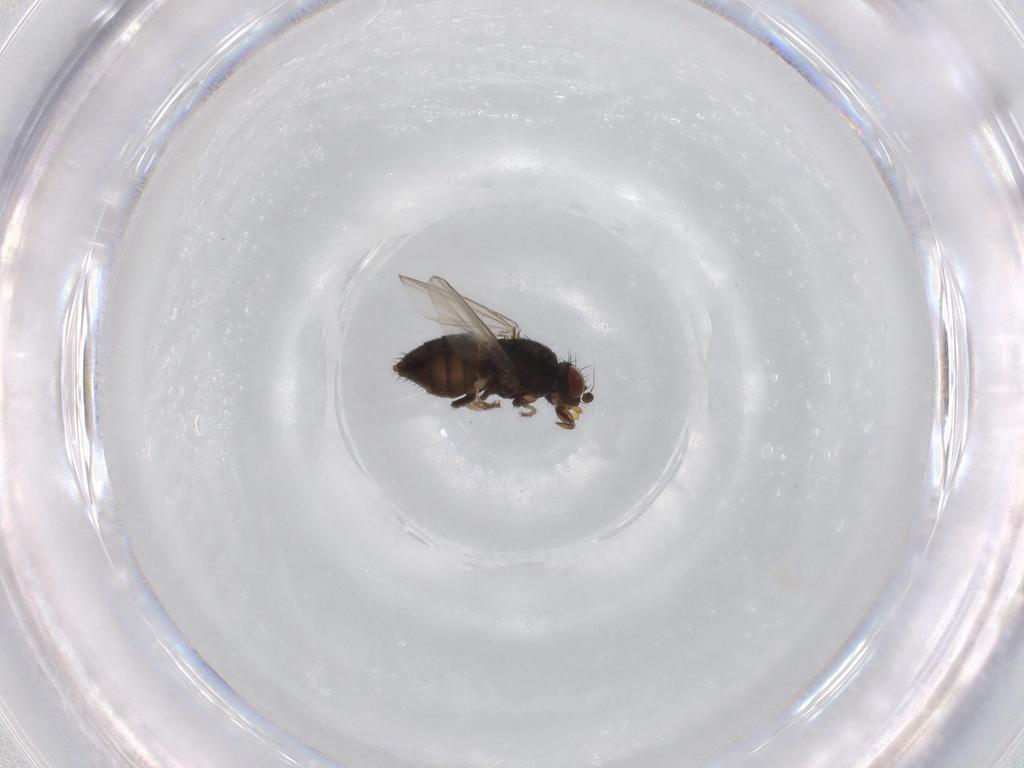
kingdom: Animalia
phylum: Arthropoda
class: Insecta
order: Diptera
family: Milichiidae
